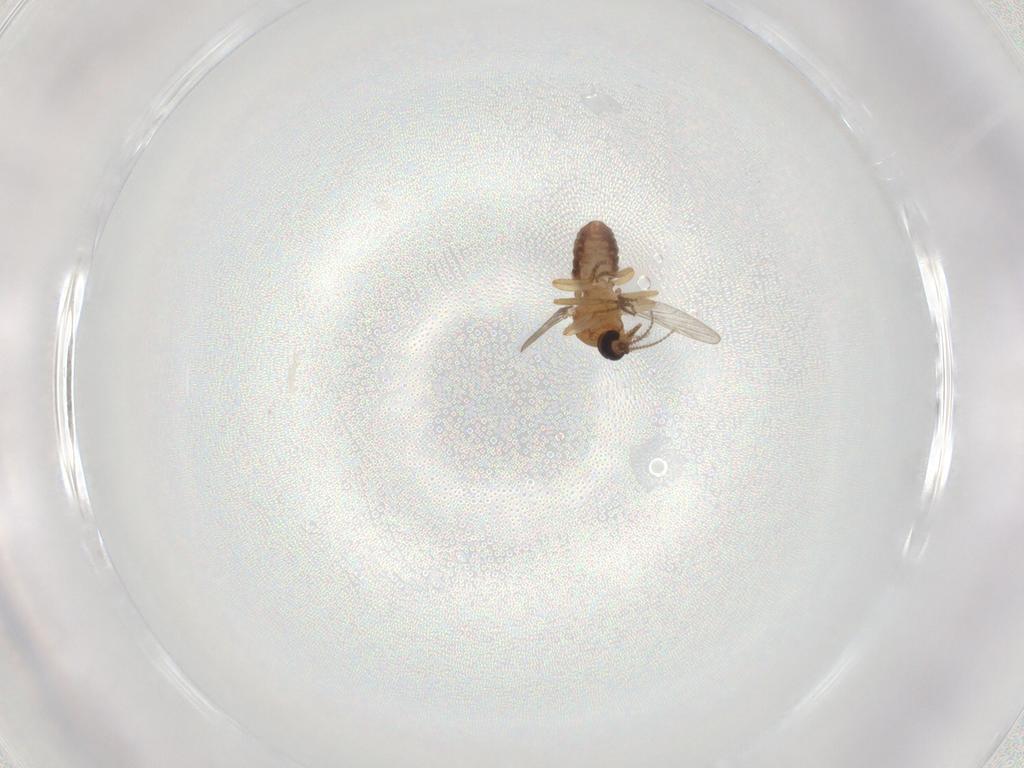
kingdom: Animalia
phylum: Arthropoda
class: Insecta
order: Diptera
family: Ceratopogonidae
